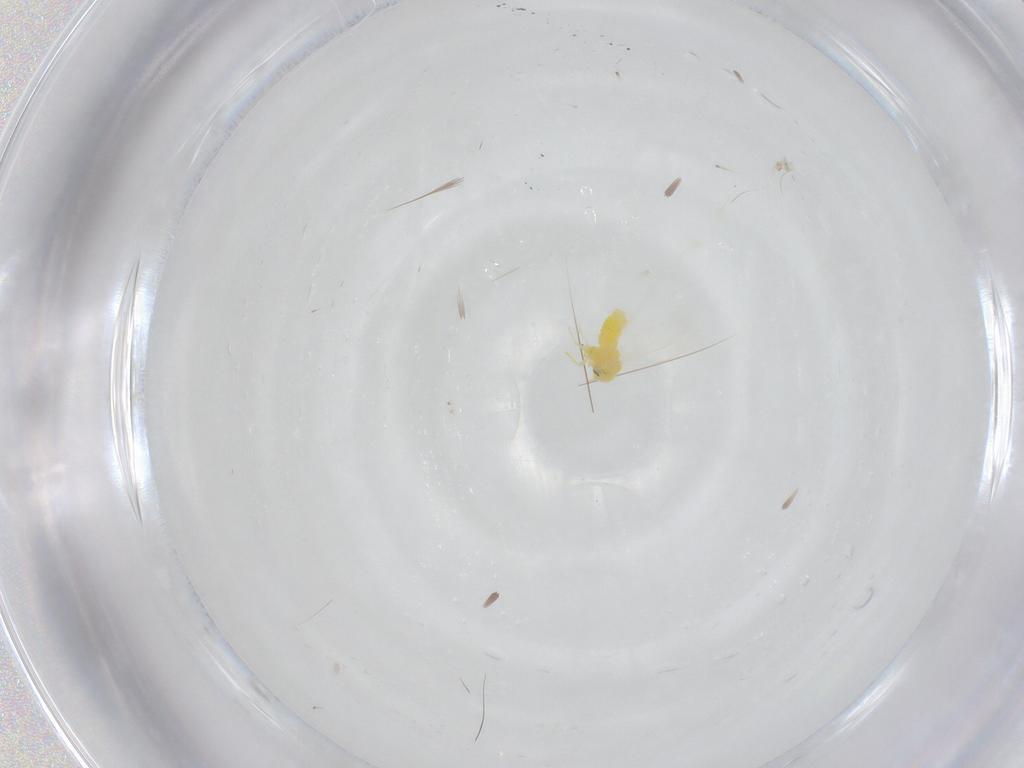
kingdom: Animalia
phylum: Arthropoda
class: Insecta
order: Hemiptera
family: Aleyrodidae
